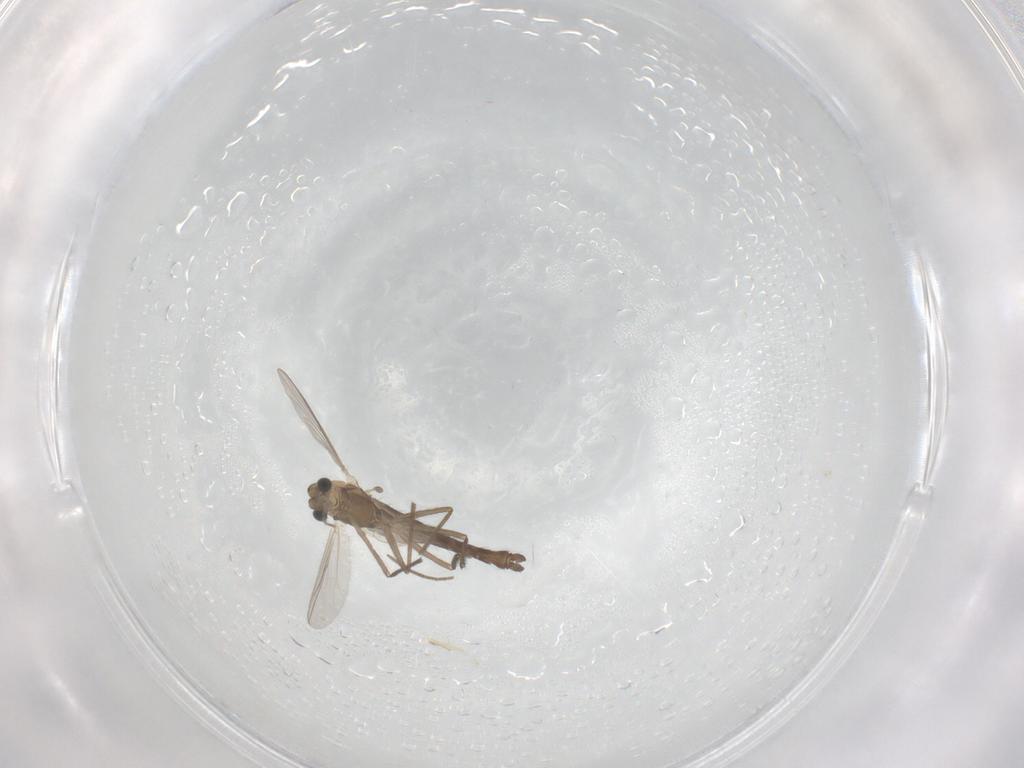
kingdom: Animalia
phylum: Arthropoda
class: Insecta
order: Diptera
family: Chironomidae
